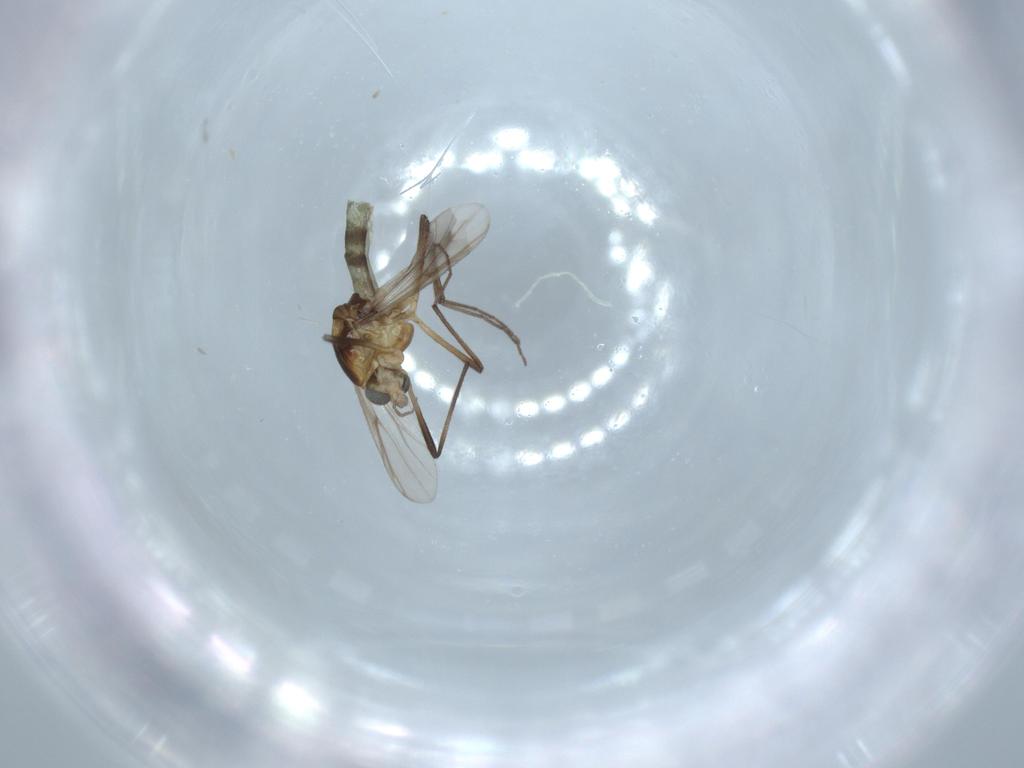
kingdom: Animalia
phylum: Arthropoda
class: Insecta
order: Diptera
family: Chironomidae
